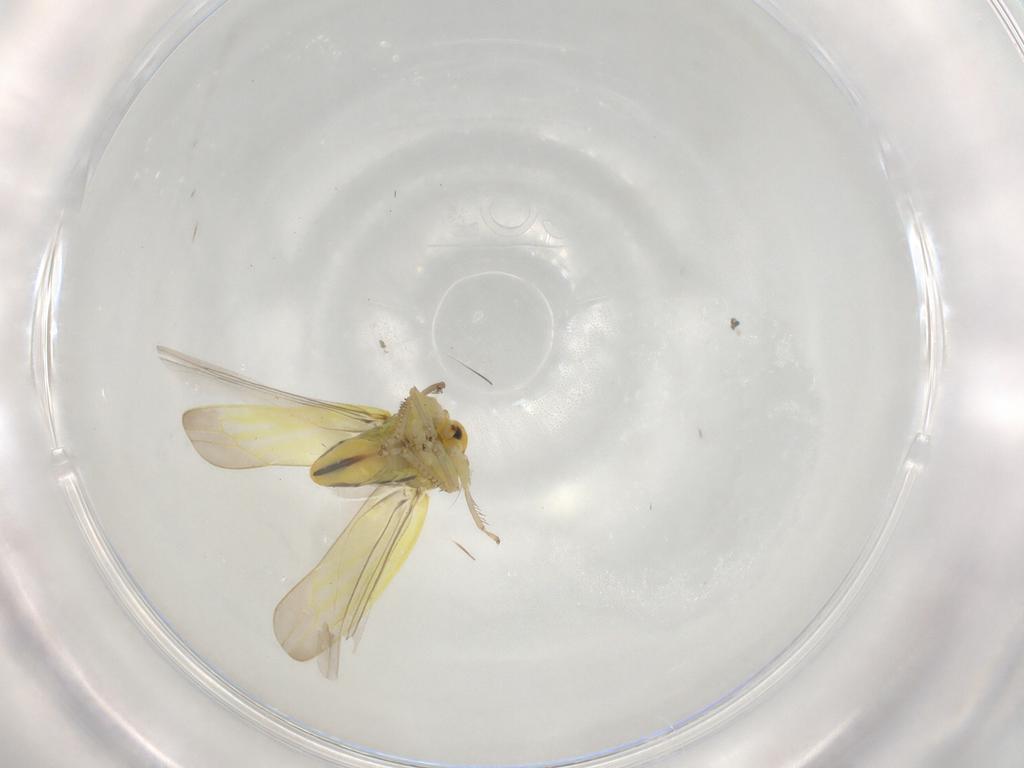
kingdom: Animalia
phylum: Arthropoda
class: Insecta
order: Hemiptera
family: Cicadellidae
